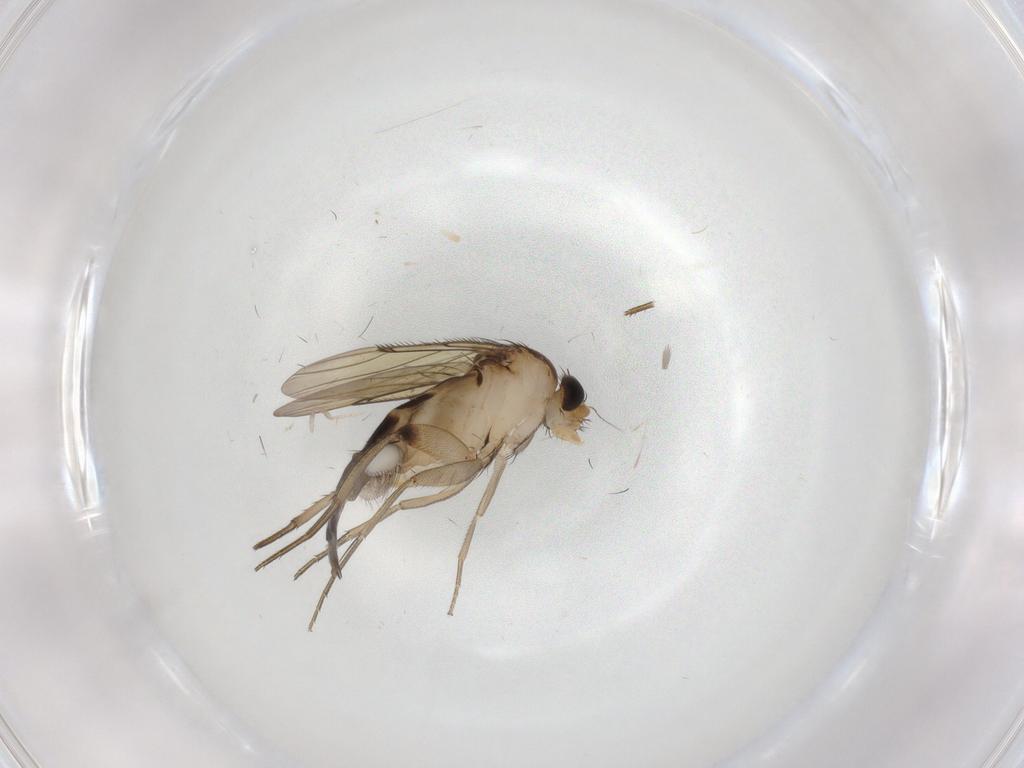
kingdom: Animalia
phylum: Arthropoda
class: Insecta
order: Diptera
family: Phoridae
